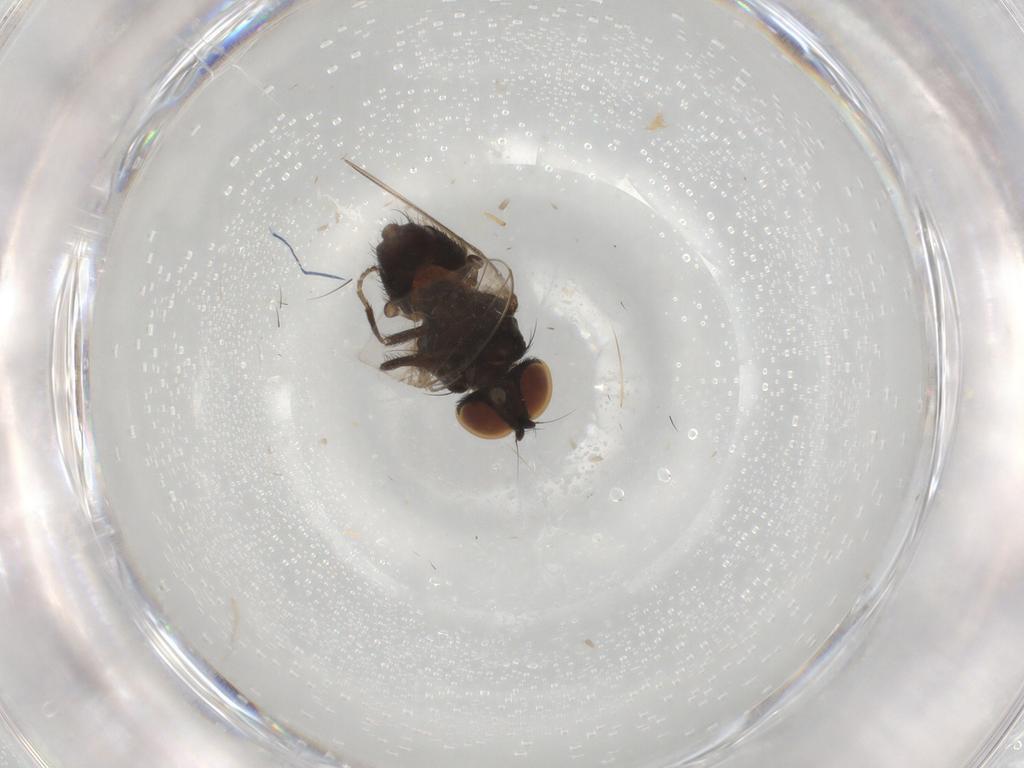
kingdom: Animalia
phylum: Arthropoda
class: Insecta
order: Diptera
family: Milichiidae
